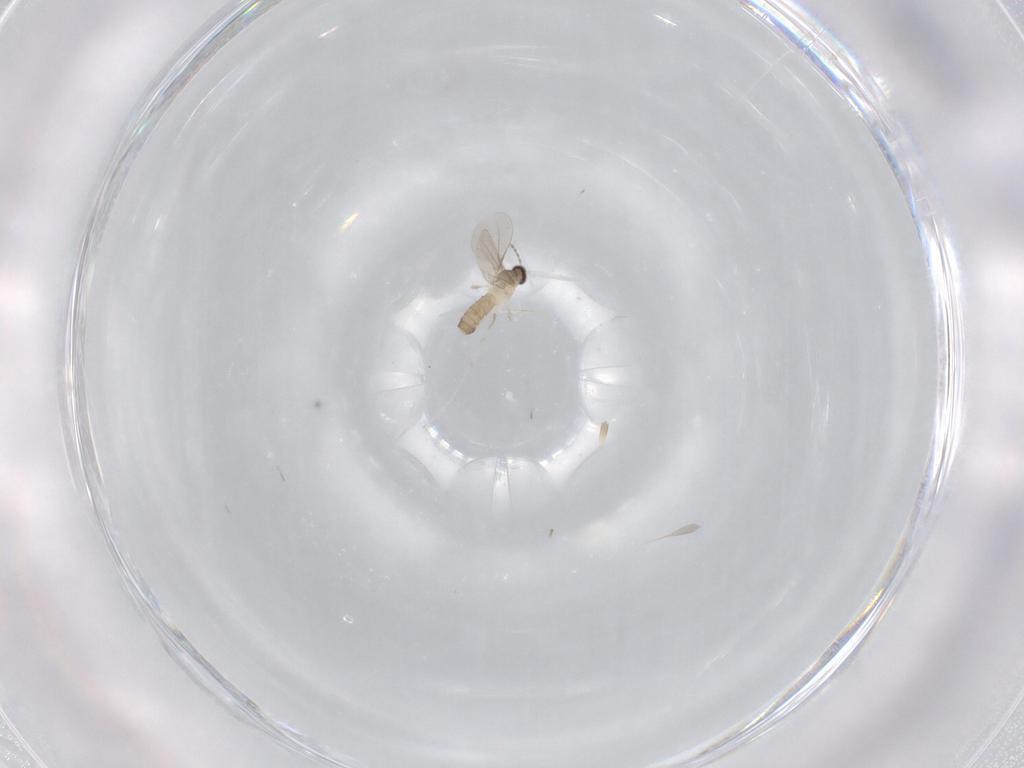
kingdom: Animalia
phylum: Arthropoda
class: Insecta
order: Diptera
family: Cecidomyiidae
